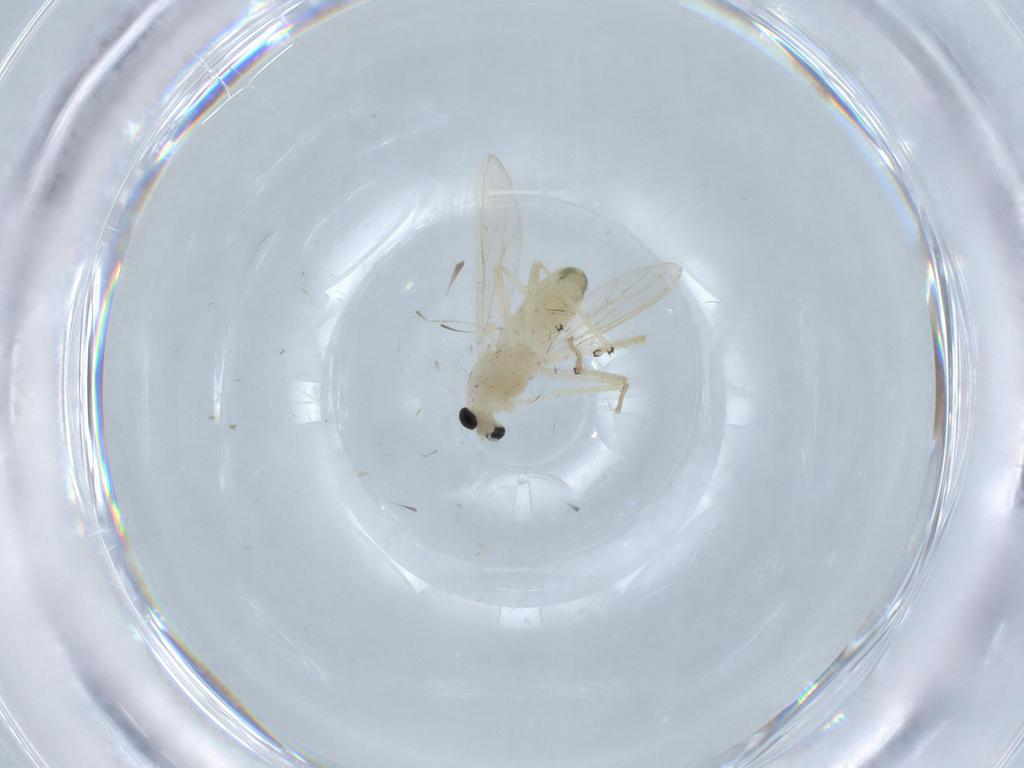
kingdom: Animalia
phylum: Arthropoda
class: Insecta
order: Diptera
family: Chironomidae
